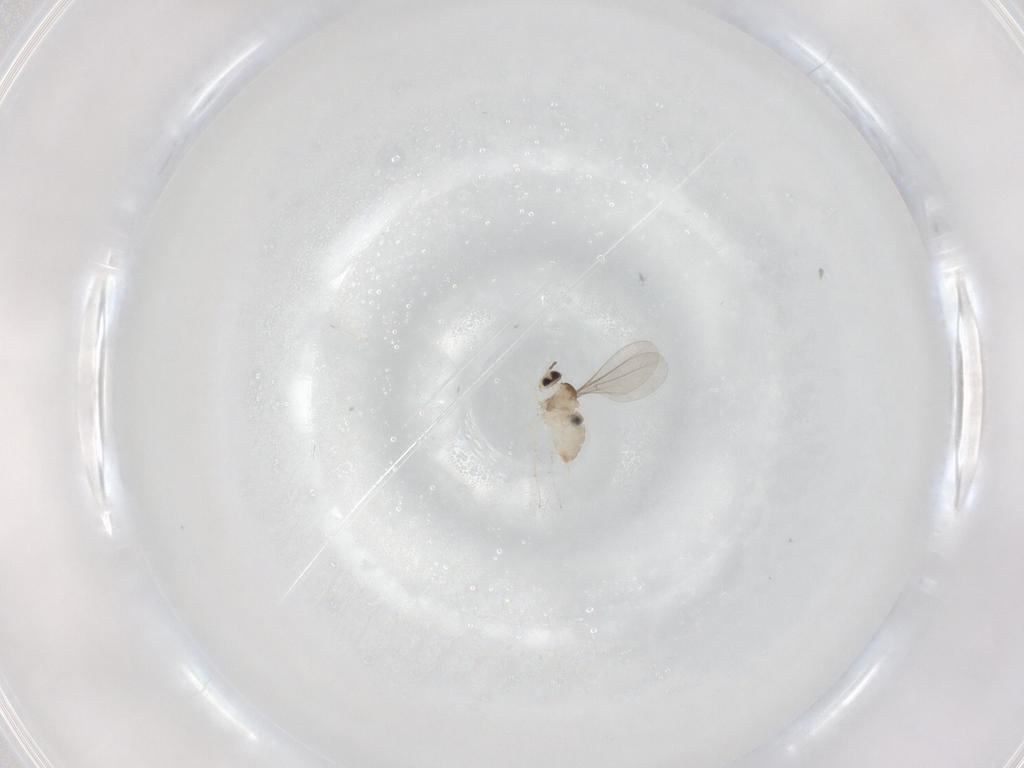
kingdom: Animalia
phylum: Arthropoda
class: Insecta
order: Diptera
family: Cecidomyiidae
